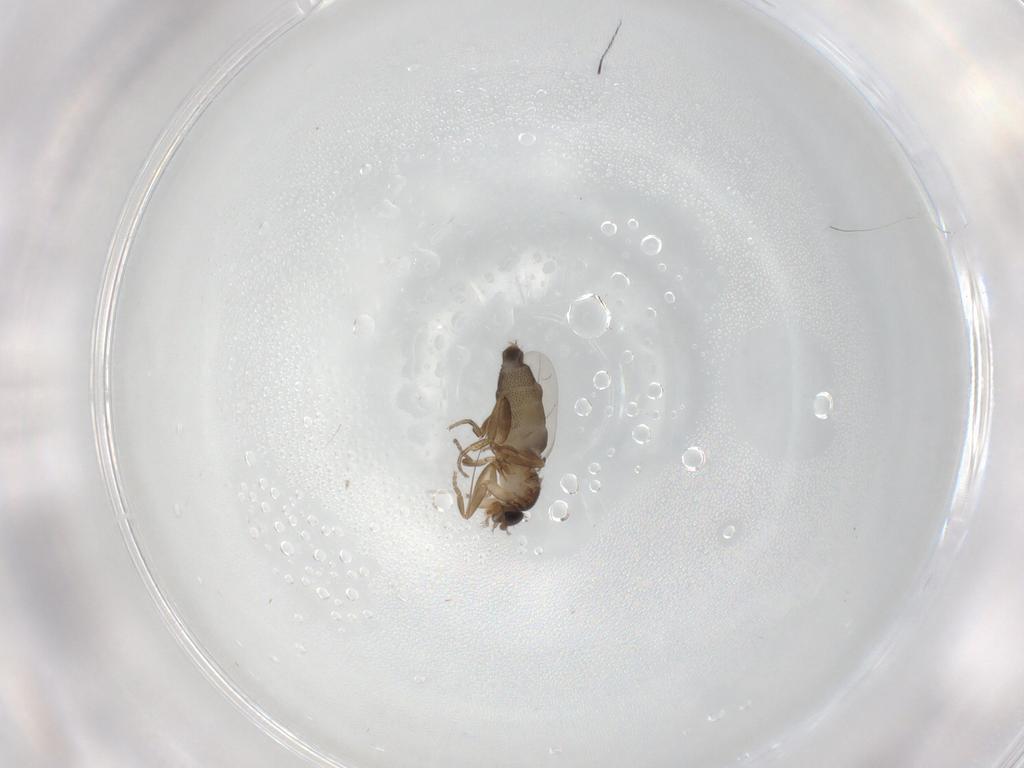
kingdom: Animalia
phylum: Arthropoda
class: Insecta
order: Diptera
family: Phoridae
